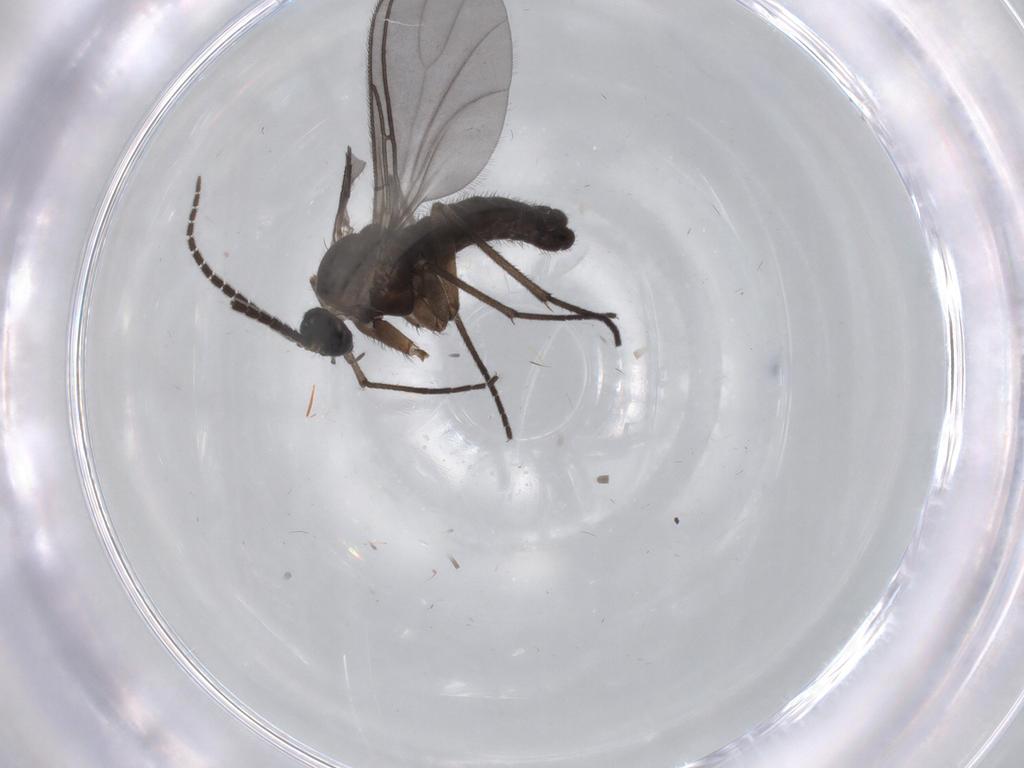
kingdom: Animalia
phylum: Arthropoda
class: Insecta
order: Diptera
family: Sciaridae
